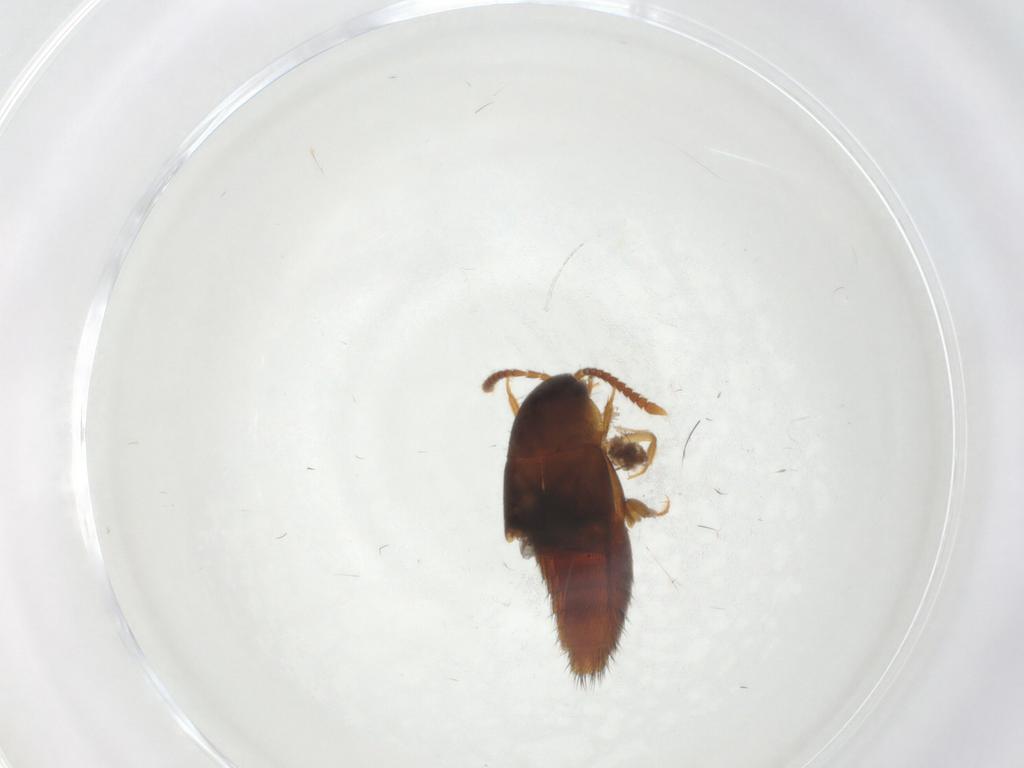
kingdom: Animalia
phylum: Arthropoda
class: Insecta
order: Coleoptera
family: Staphylinidae
